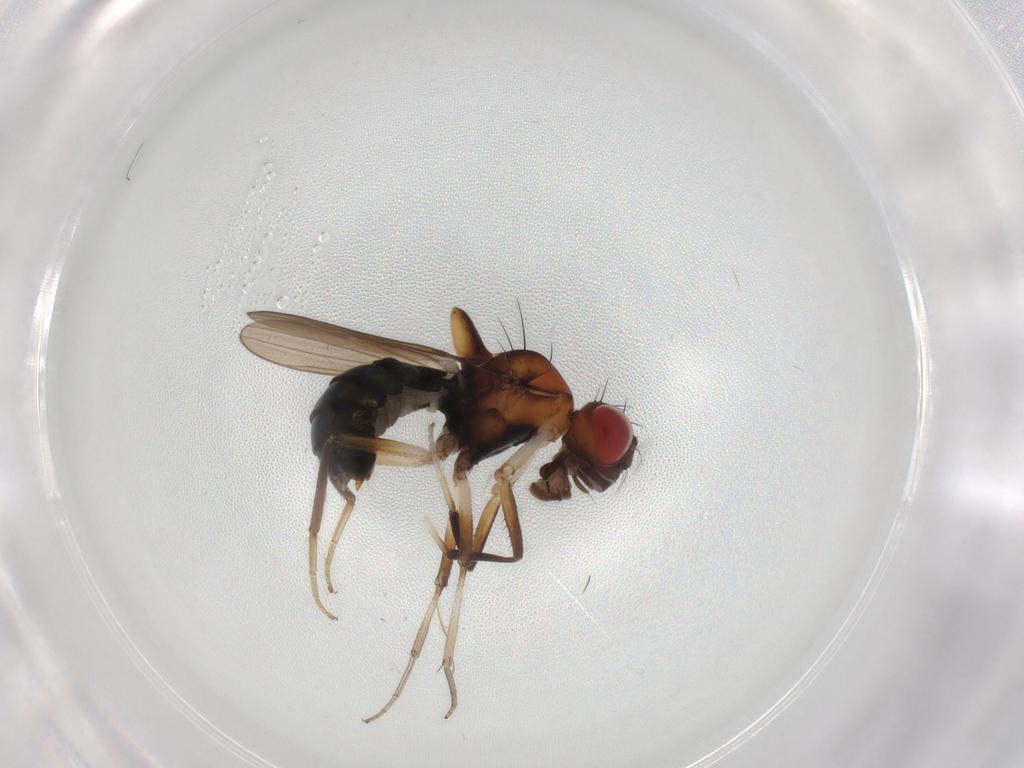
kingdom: Animalia
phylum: Arthropoda
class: Insecta
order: Diptera
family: Drosophilidae
